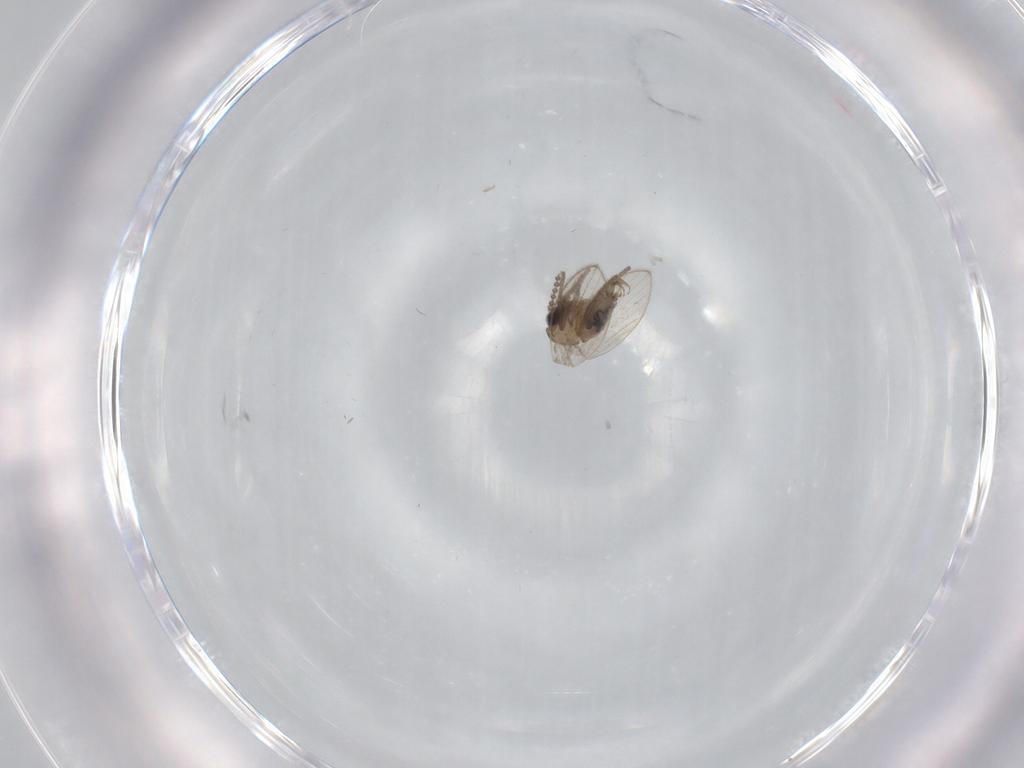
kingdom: Animalia
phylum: Arthropoda
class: Insecta
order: Diptera
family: Psychodidae
